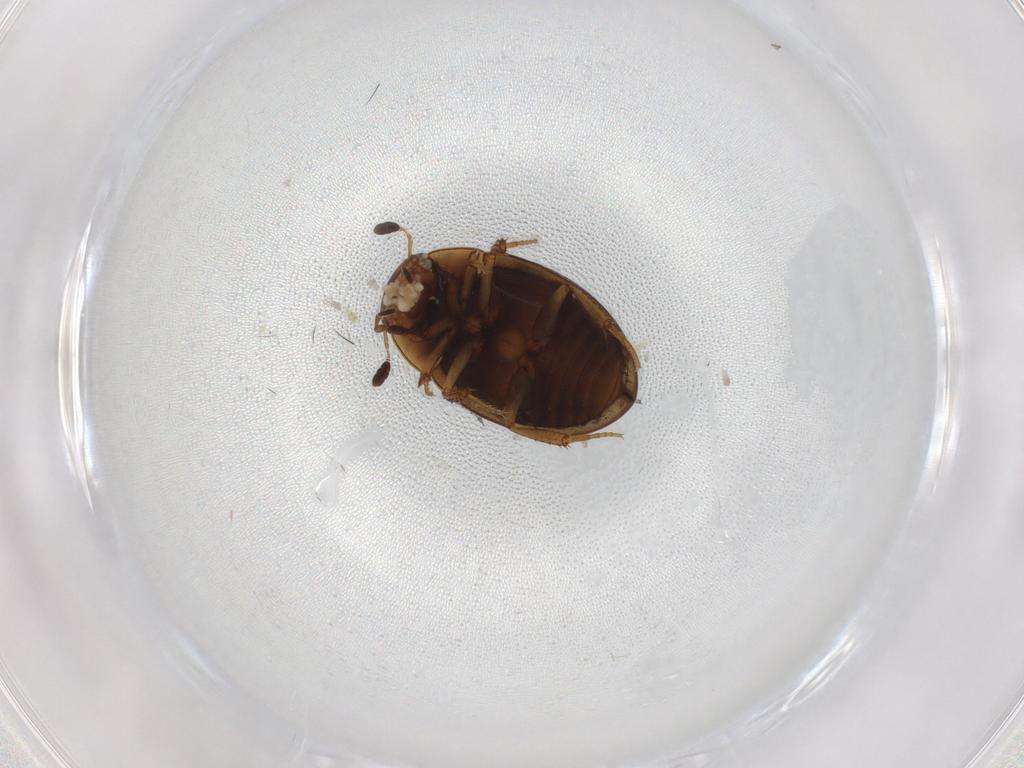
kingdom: Animalia
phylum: Arthropoda
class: Insecta
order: Coleoptera
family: Hydrophilidae
